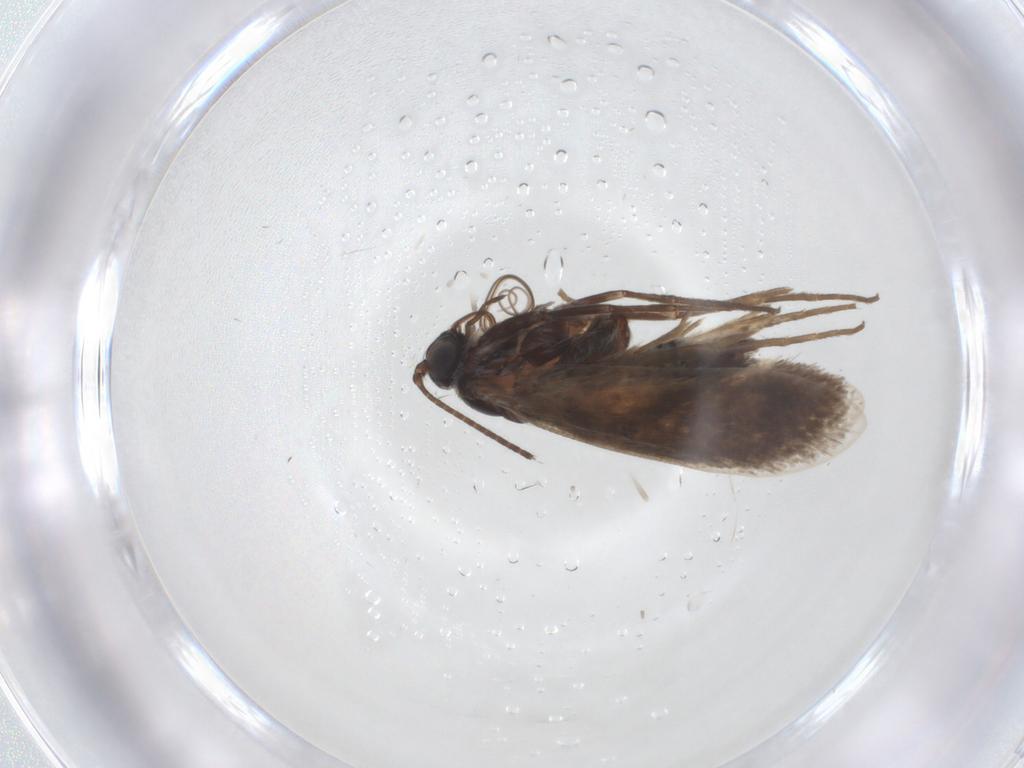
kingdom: Animalia
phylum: Arthropoda
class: Insecta
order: Lepidoptera
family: Adelidae
